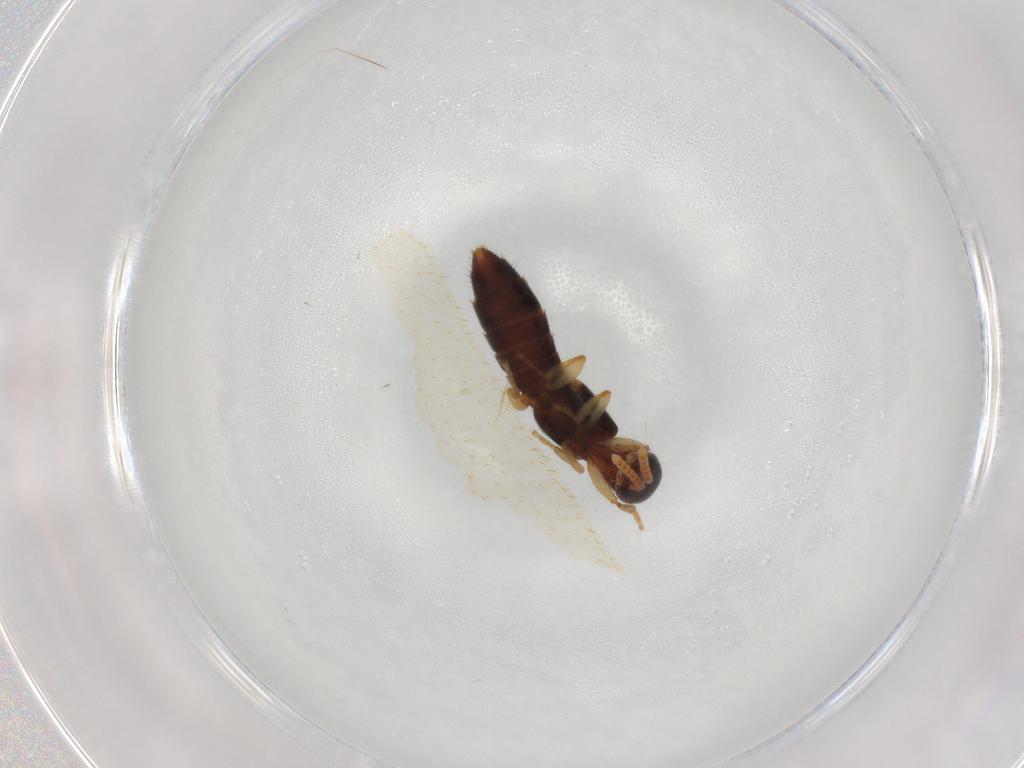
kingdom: Animalia
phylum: Arthropoda
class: Insecta
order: Coleoptera
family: Staphylinidae
